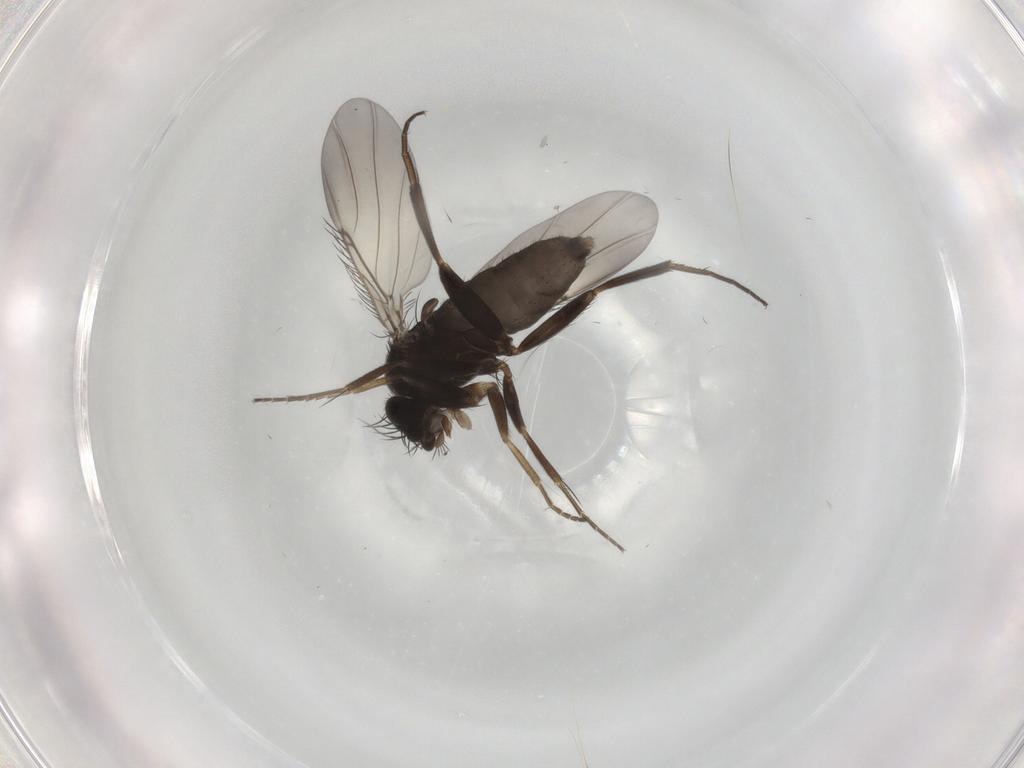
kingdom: Animalia
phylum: Arthropoda
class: Insecta
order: Diptera
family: Phoridae
